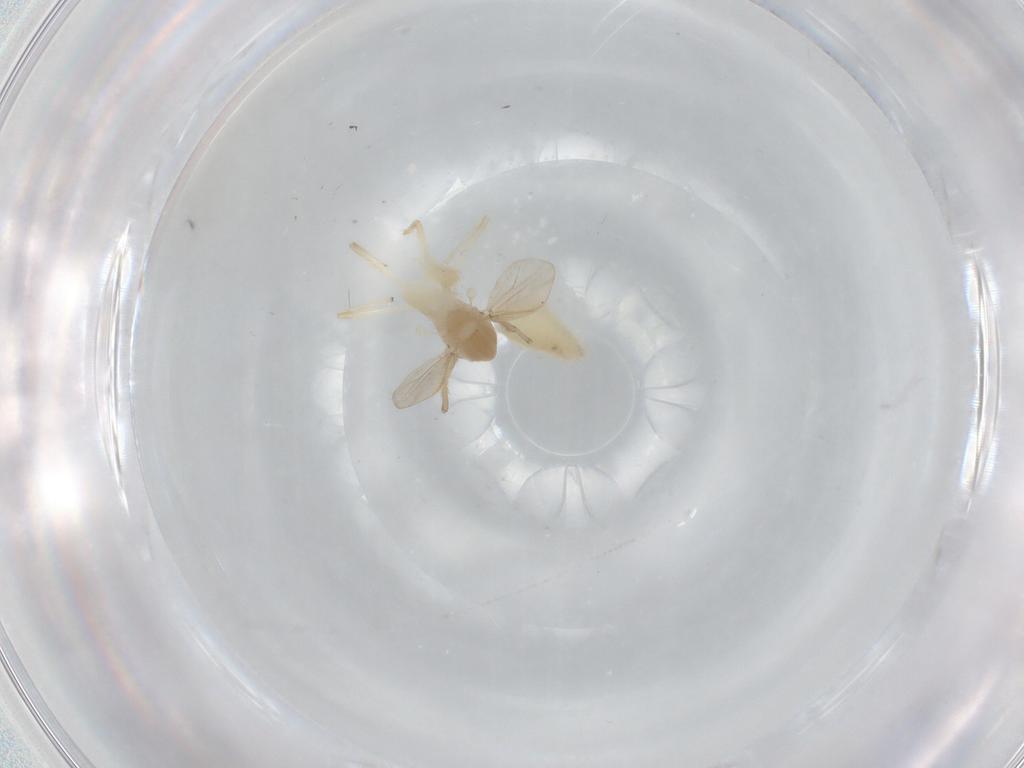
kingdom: Animalia
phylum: Arthropoda
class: Insecta
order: Diptera
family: Chironomidae
